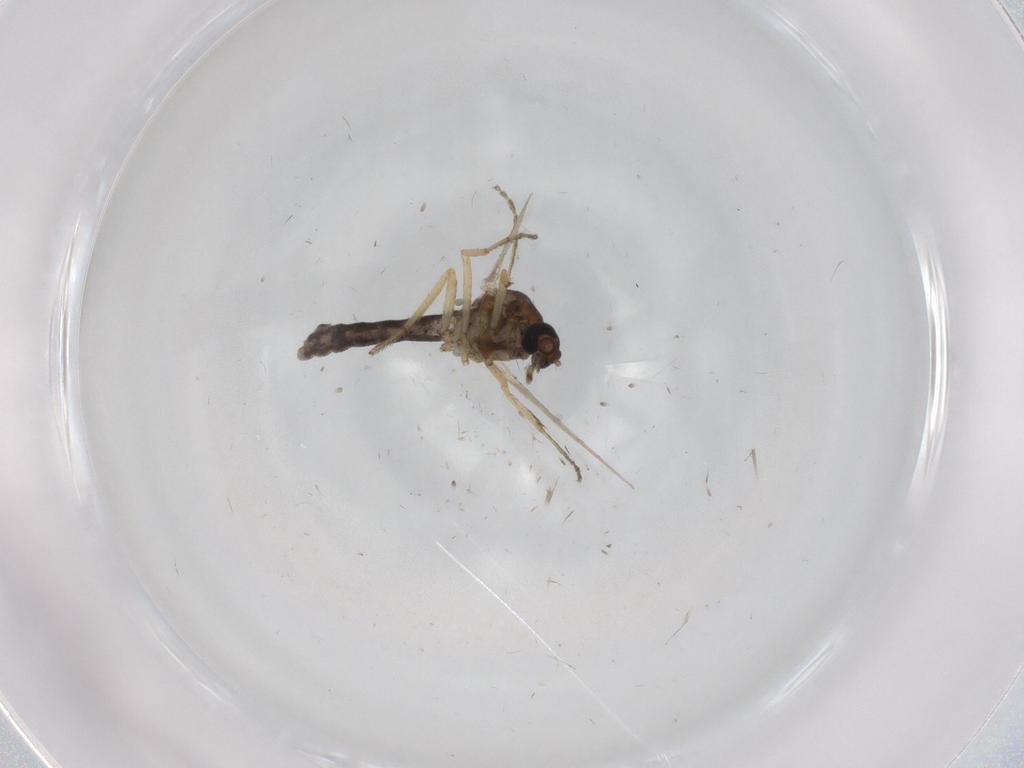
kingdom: Animalia
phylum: Arthropoda
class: Insecta
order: Diptera
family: Ceratopogonidae
